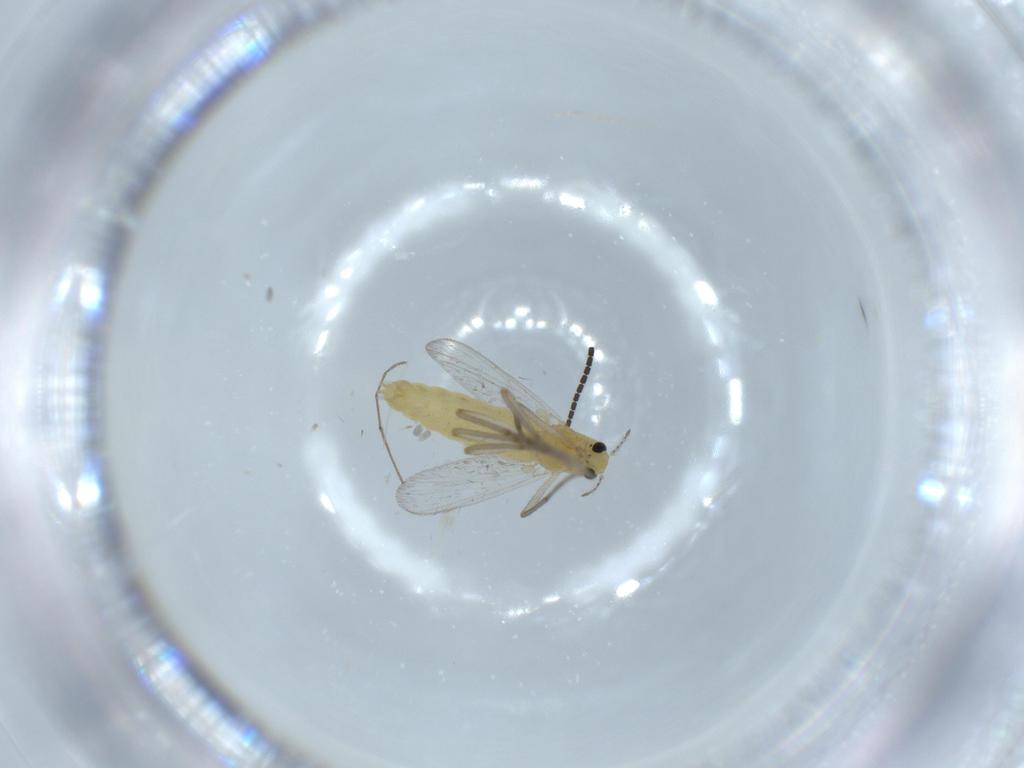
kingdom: Animalia
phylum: Arthropoda
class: Insecta
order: Diptera
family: Chironomidae
